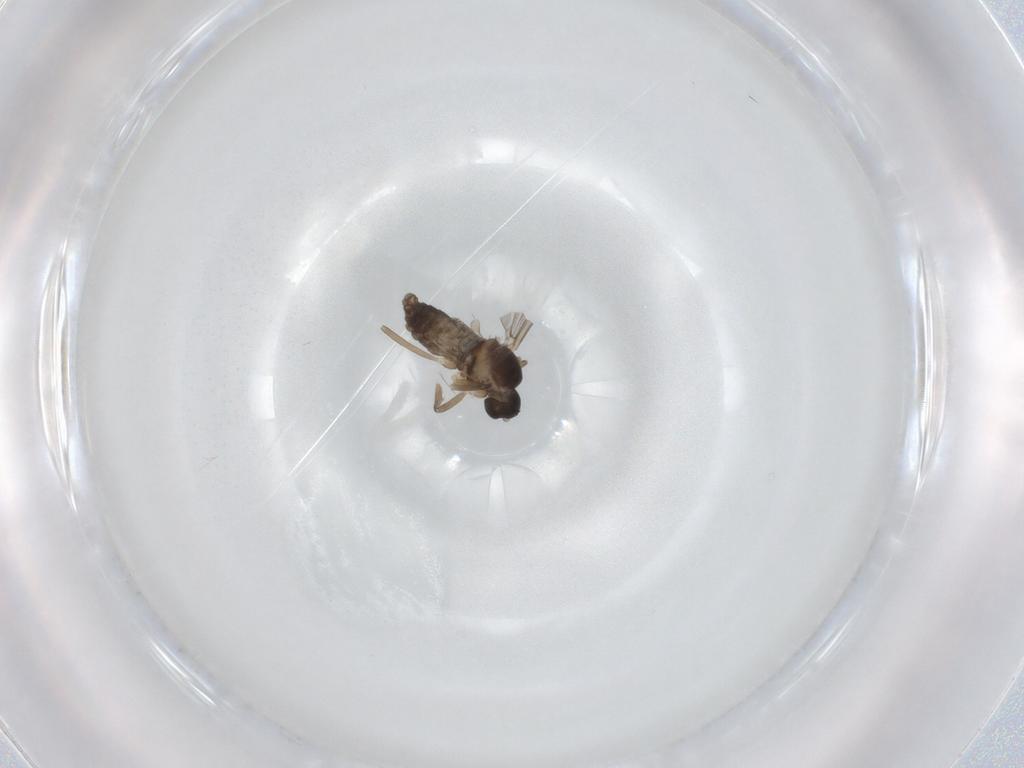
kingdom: Animalia
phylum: Arthropoda
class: Insecta
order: Diptera
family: Cecidomyiidae
